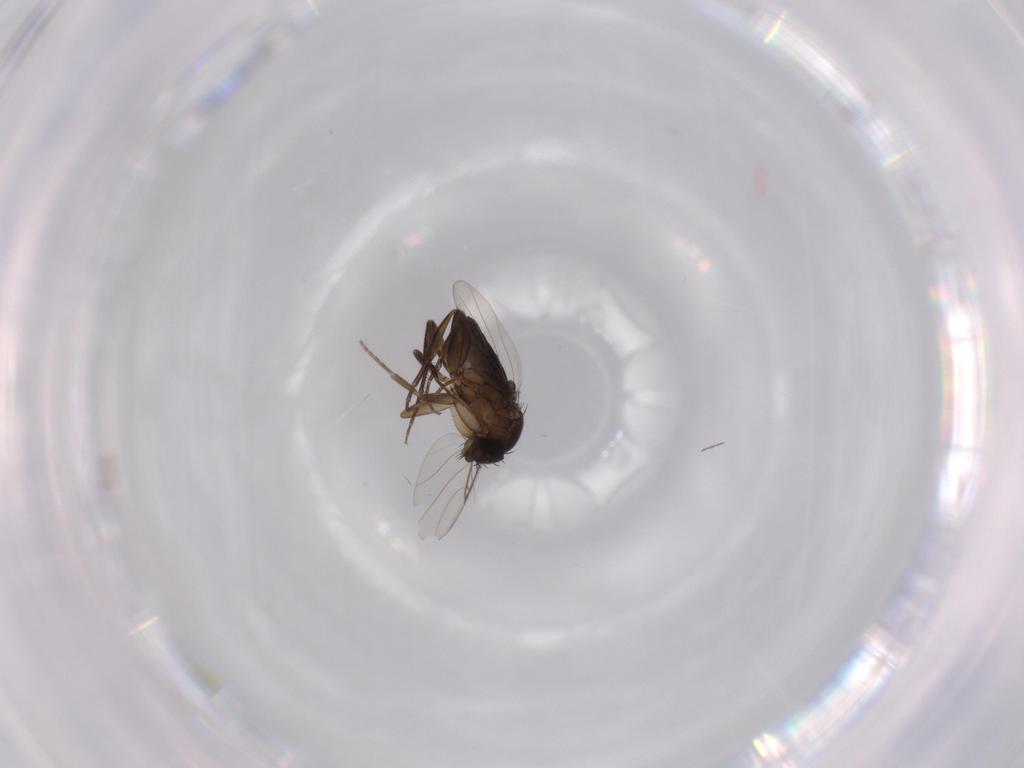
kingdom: Animalia
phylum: Arthropoda
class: Insecta
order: Diptera
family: Phoridae
